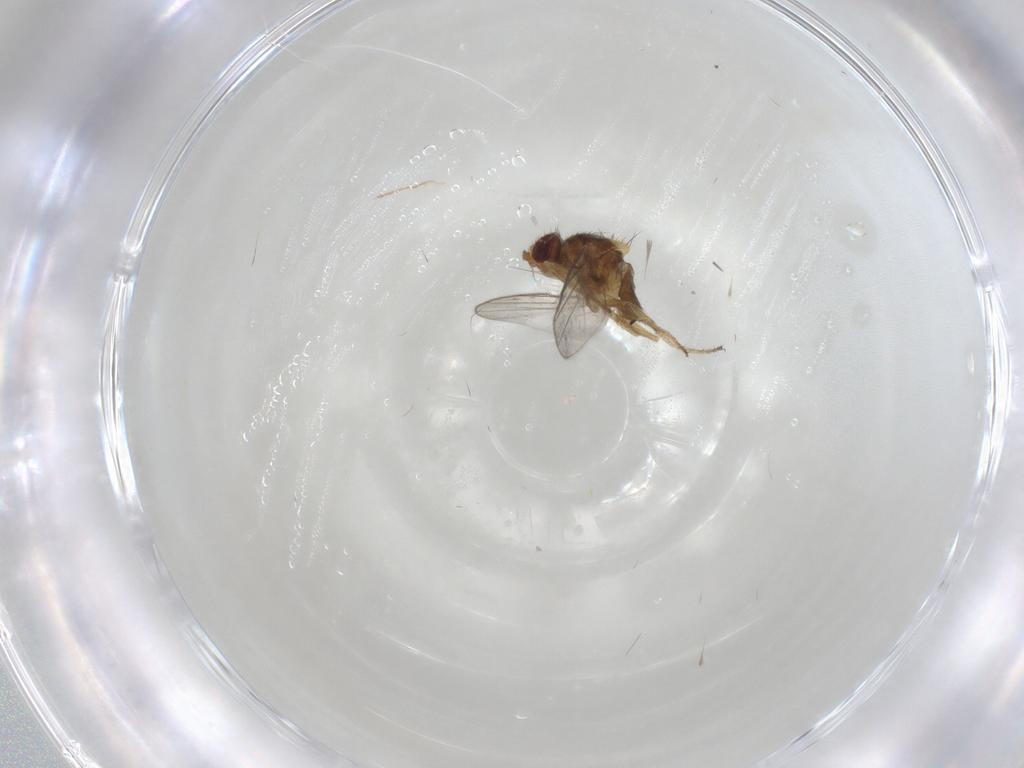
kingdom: Animalia
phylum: Arthropoda
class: Insecta
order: Diptera
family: Chloropidae
